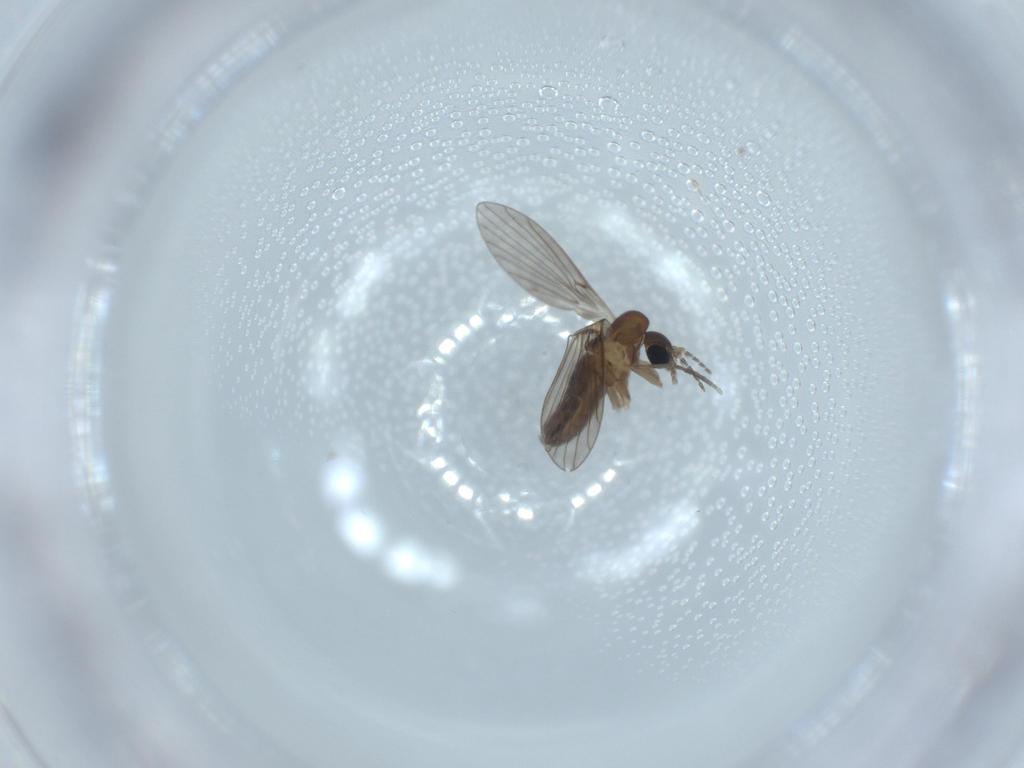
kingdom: Animalia
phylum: Arthropoda
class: Insecta
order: Diptera
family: Psychodidae
